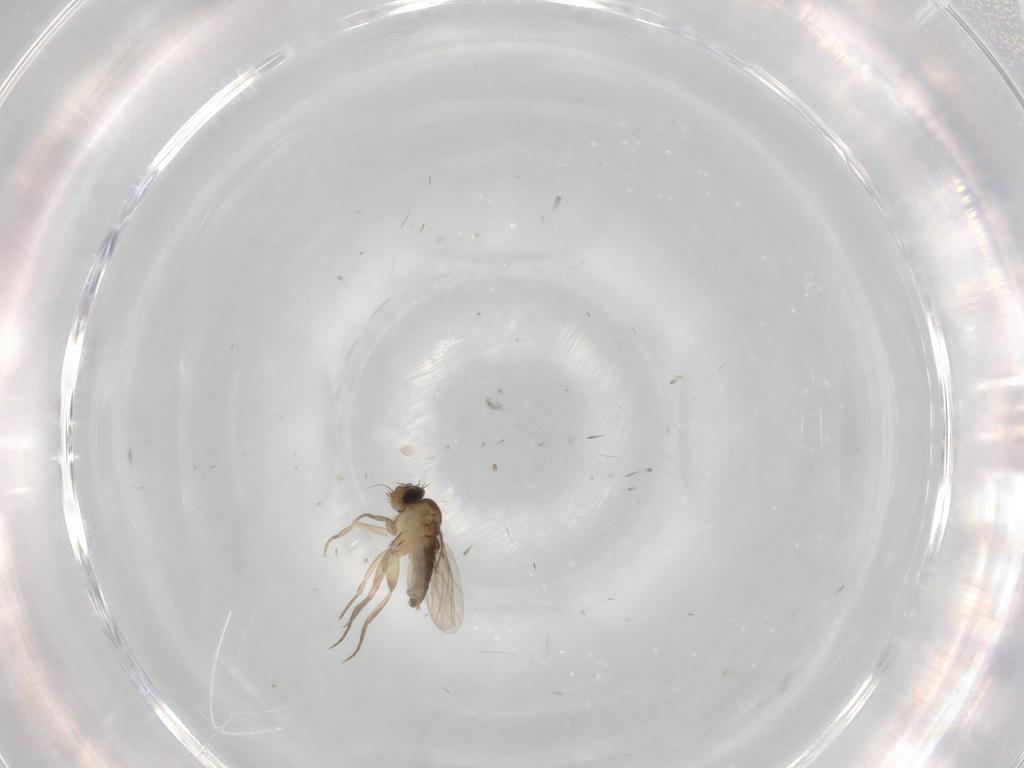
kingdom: Animalia
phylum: Arthropoda
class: Insecta
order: Diptera
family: Phoridae
